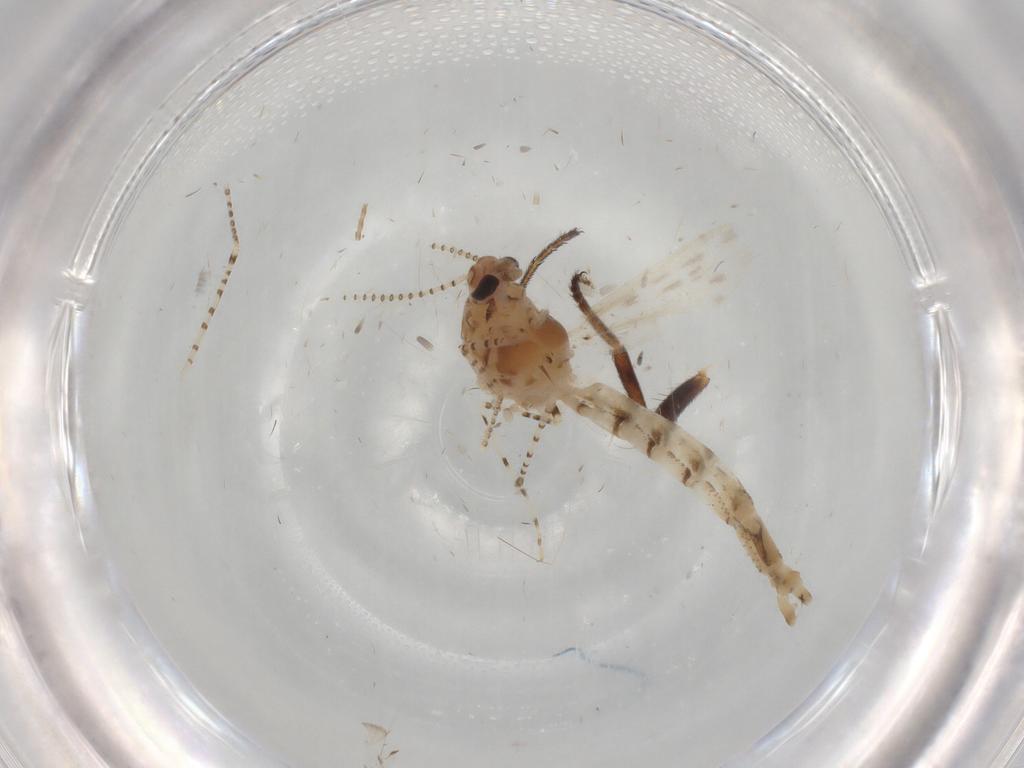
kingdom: Animalia
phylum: Arthropoda
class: Insecta
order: Diptera
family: Chaoboridae
